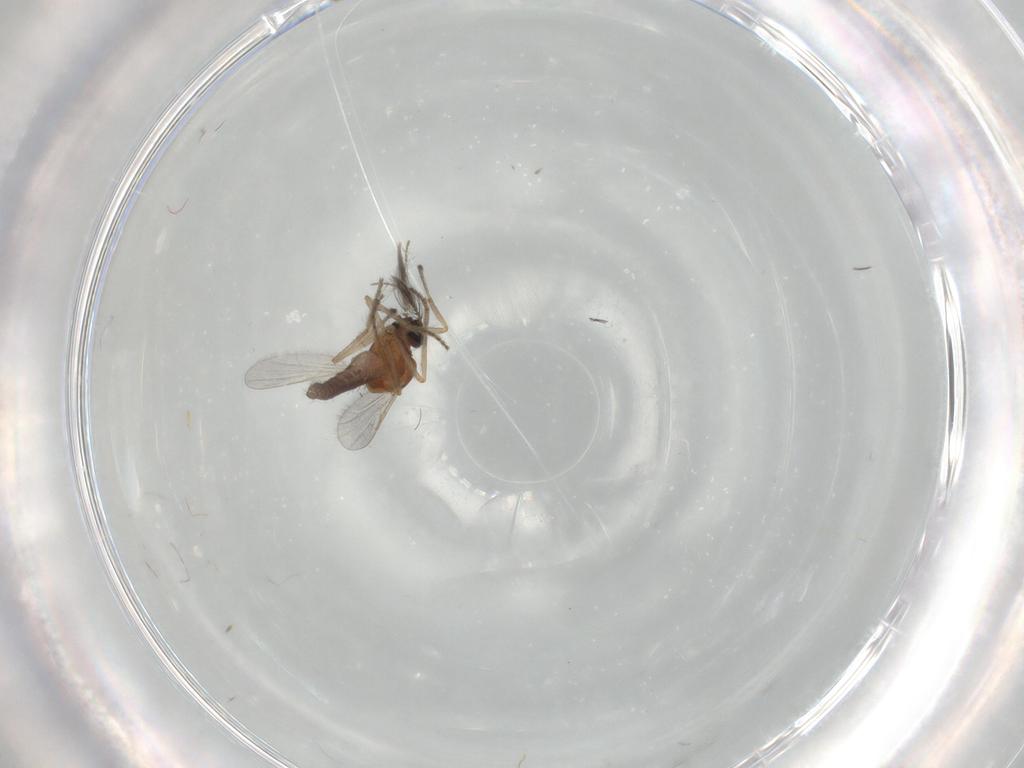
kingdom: Animalia
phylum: Arthropoda
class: Insecta
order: Diptera
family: Ceratopogonidae
